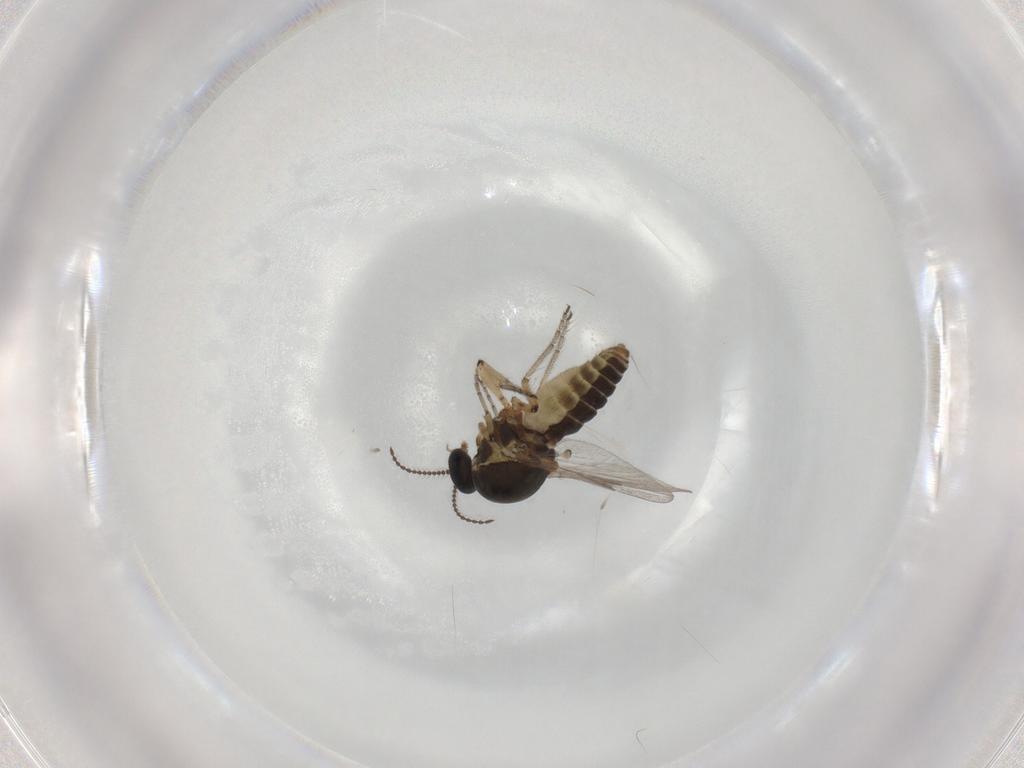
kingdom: Animalia
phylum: Arthropoda
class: Insecta
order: Diptera
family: Ceratopogonidae
